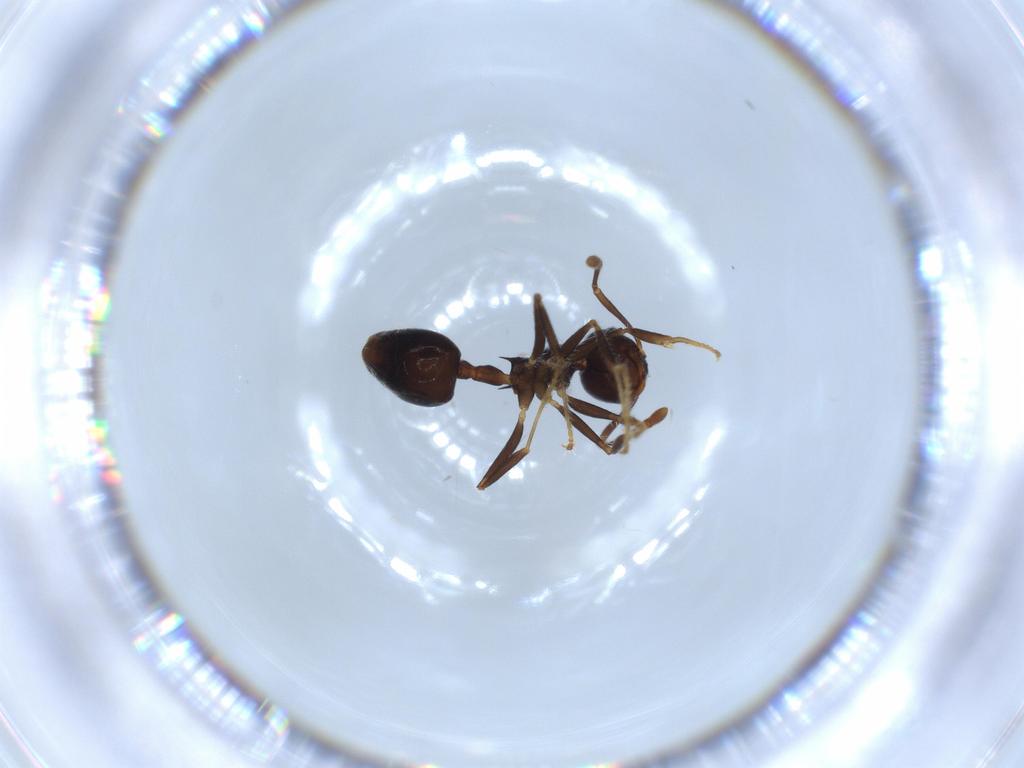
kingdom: Animalia
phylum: Arthropoda
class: Insecta
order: Hymenoptera
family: Formicidae
